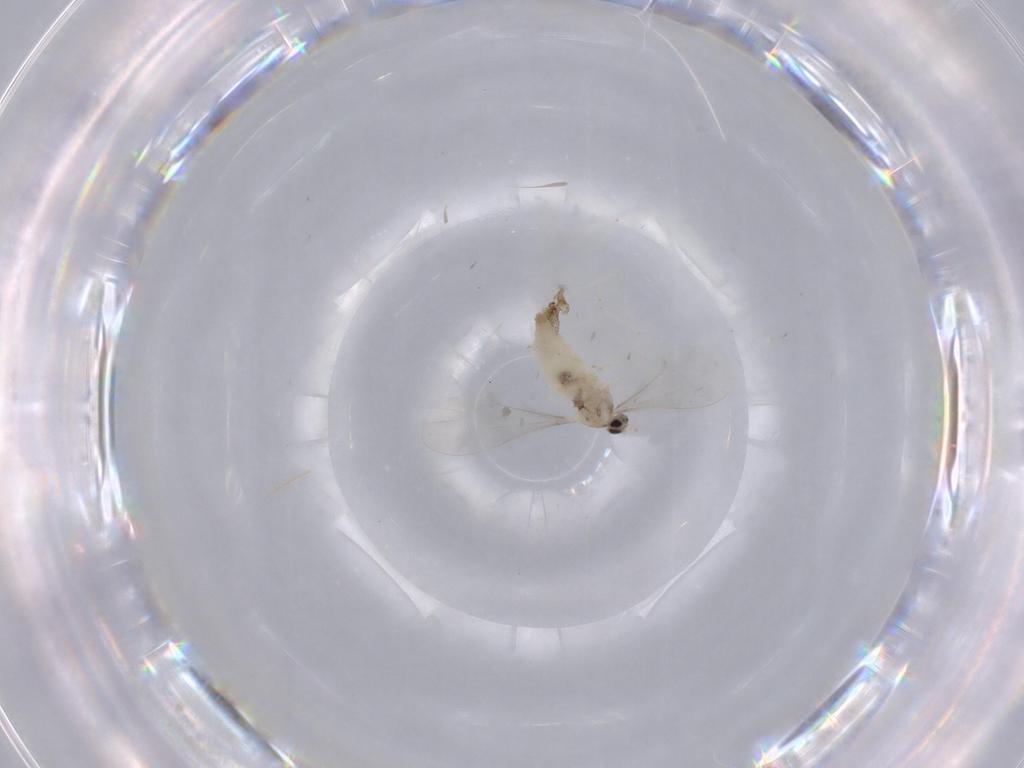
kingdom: Animalia
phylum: Arthropoda
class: Insecta
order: Diptera
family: Cecidomyiidae
